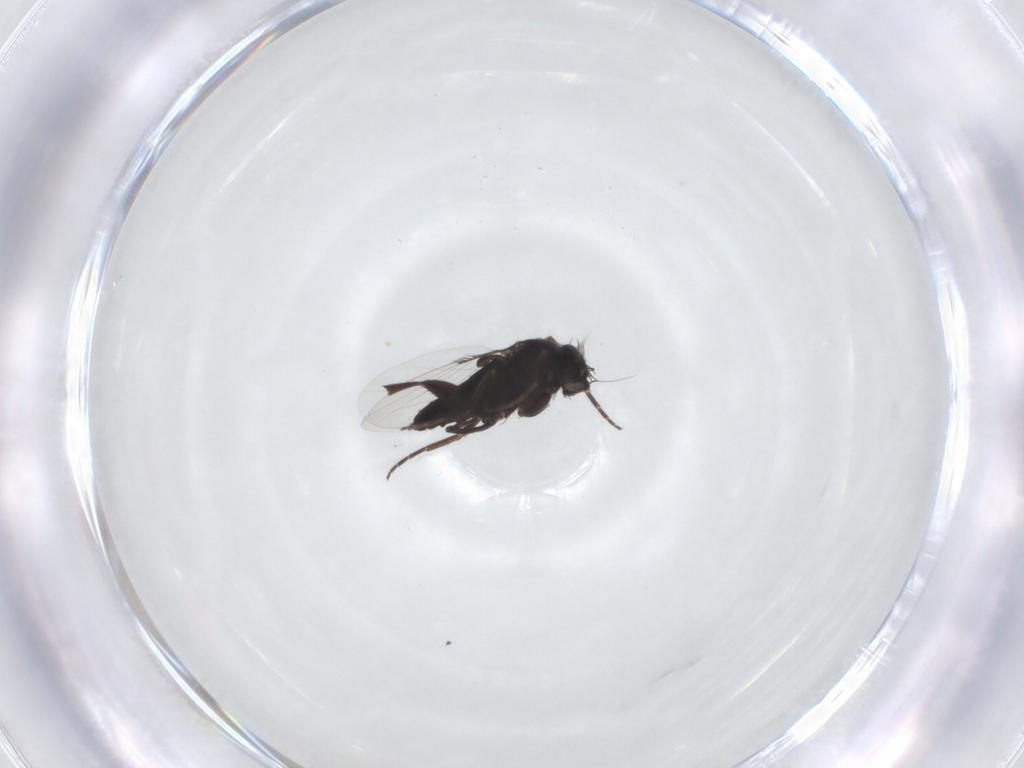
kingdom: Animalia
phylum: Arthropoda
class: Insecta
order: Diptera
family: Phoridae
